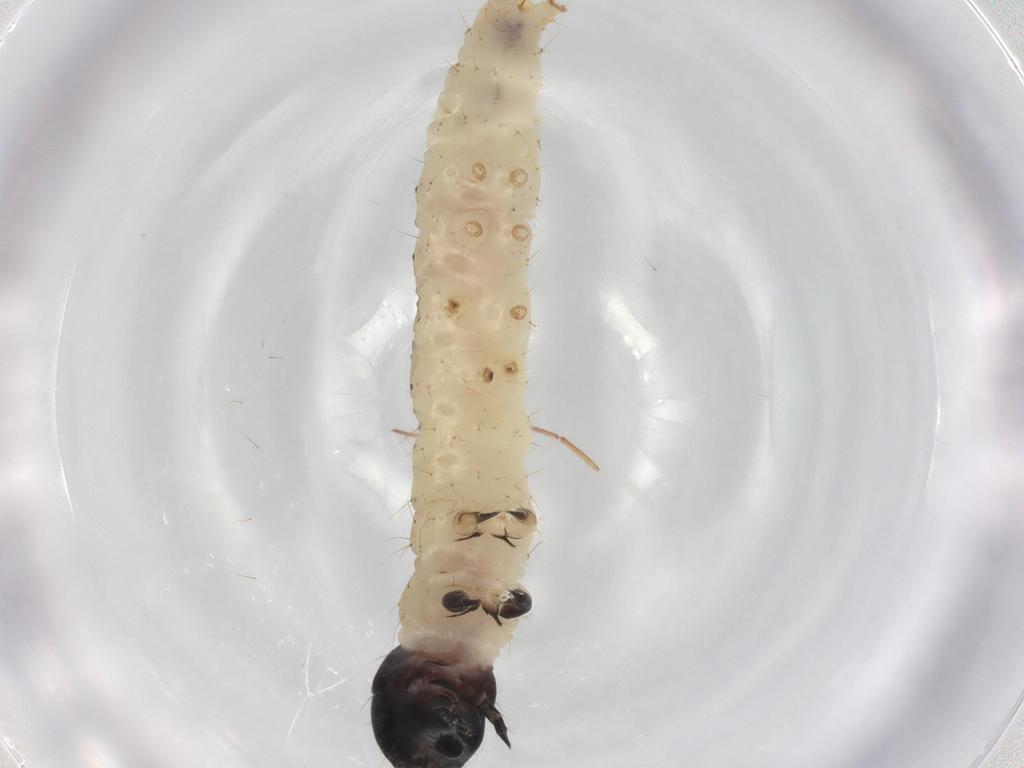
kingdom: Animalia
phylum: Arthropoda
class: Insecta
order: Lepidoptera
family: Gelechiidae
